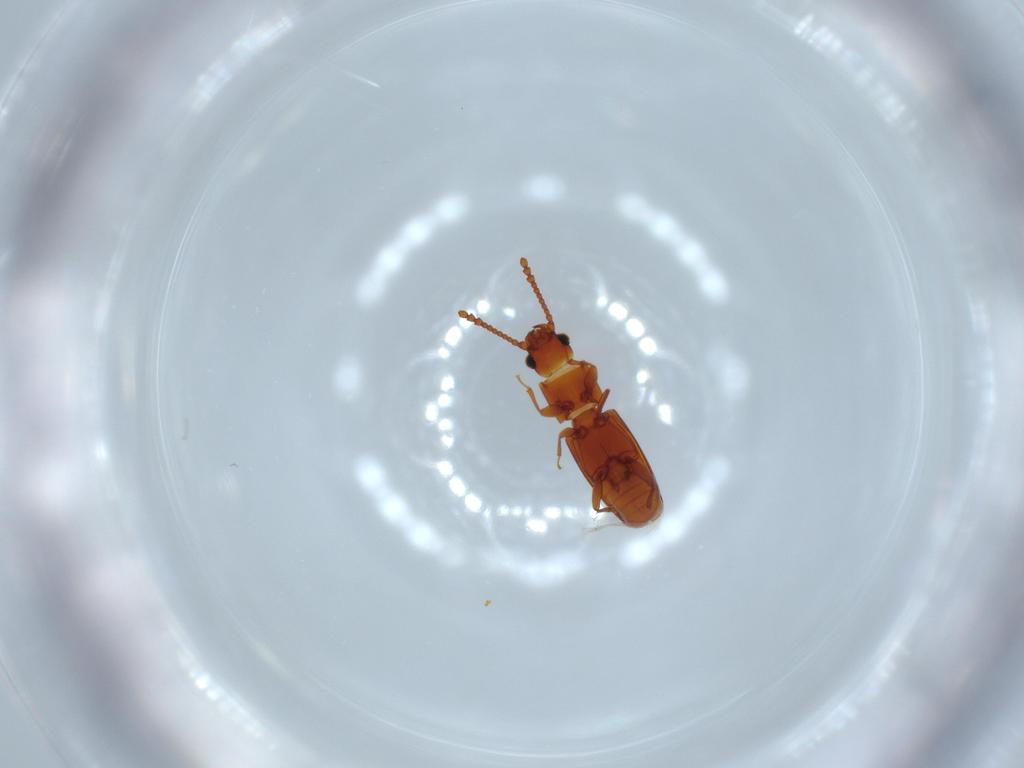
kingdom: Animalia
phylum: Arthropoda
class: Insecta
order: Coleoptera
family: Laemophloeidae
